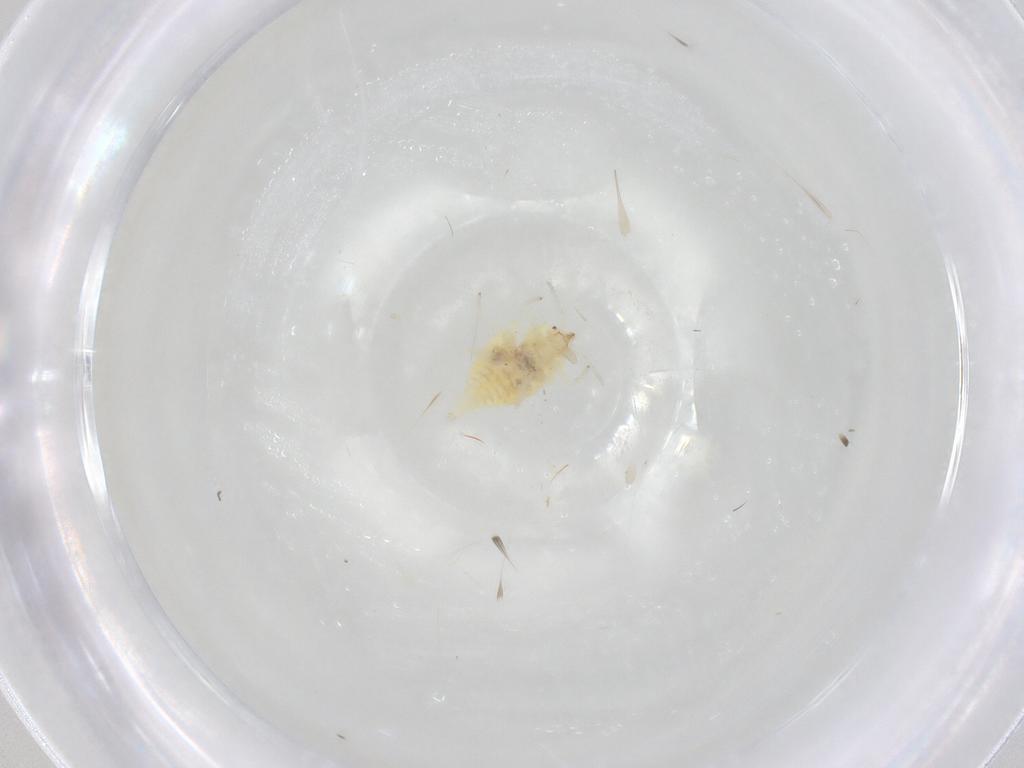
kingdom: Animalia
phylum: Arthropoda
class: Insecta
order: Neuroptera
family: Coniopterygidae
